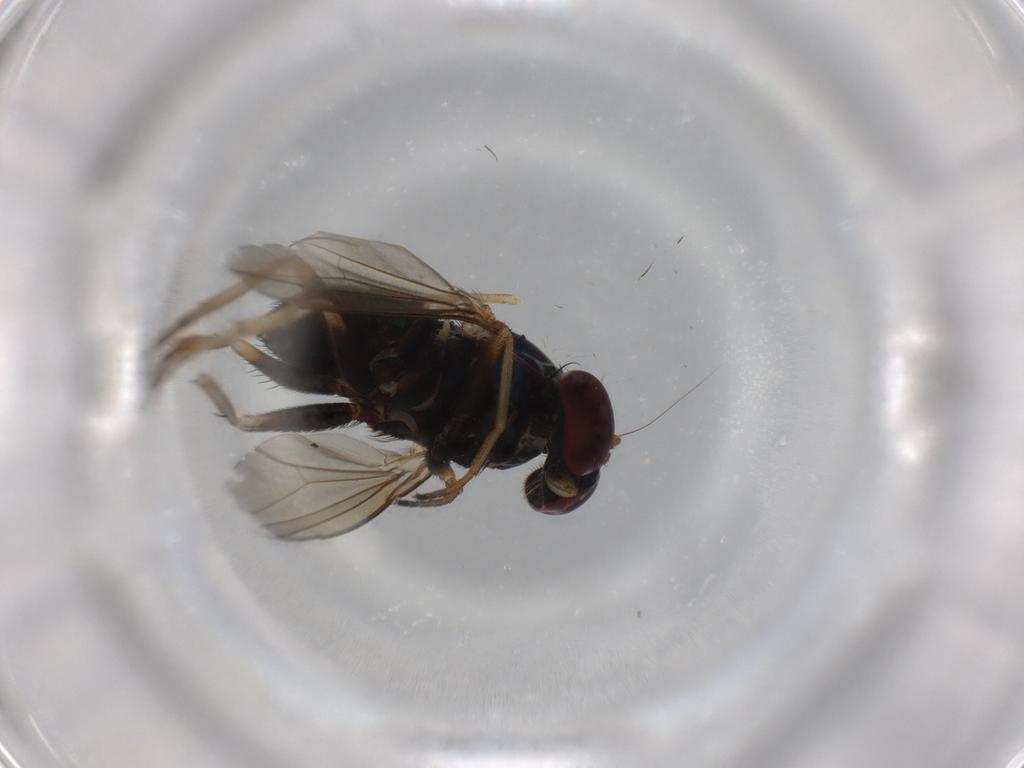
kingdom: Animalia
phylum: Arthropoda
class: Insecta
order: Diptera
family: Dolichopodidae
